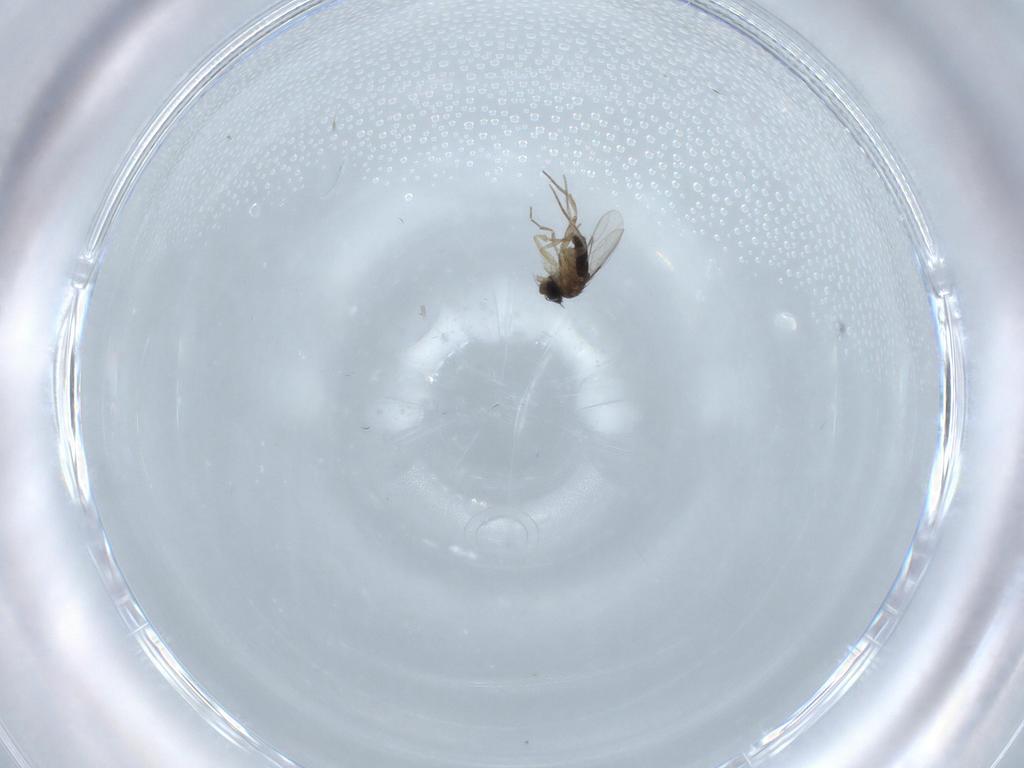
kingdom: Animalia
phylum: Arthropoda
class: Insecta
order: Diptera
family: Phoridae
